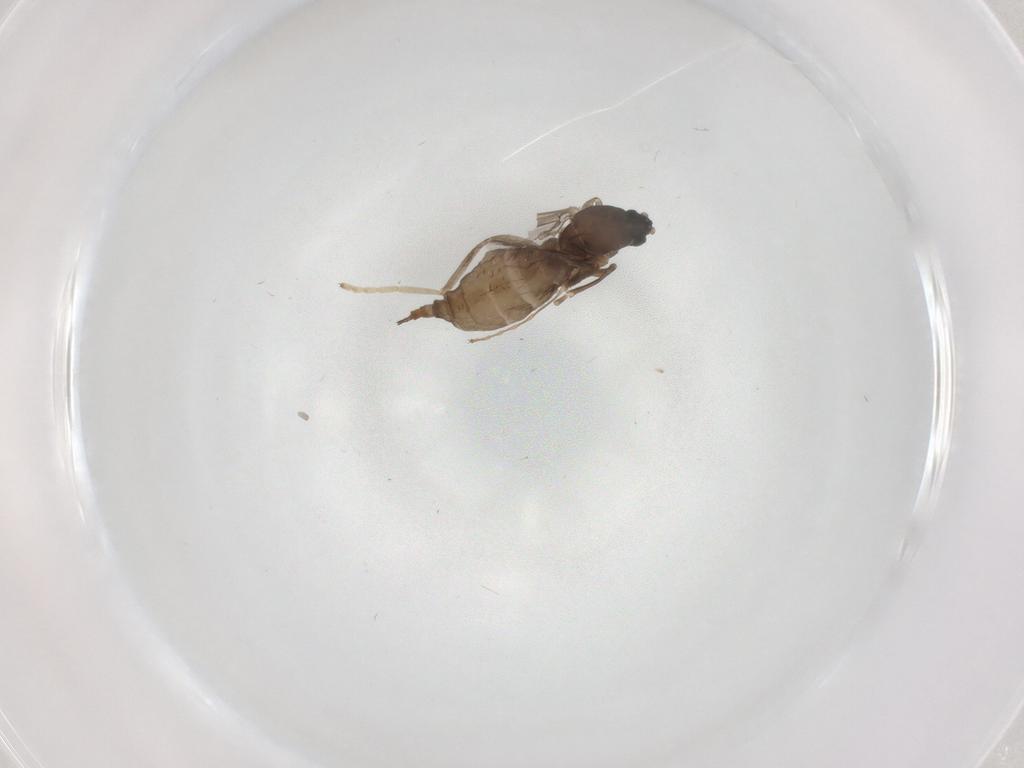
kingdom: Animalia
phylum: Arthropoda
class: Insecta
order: Diptera
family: Cecidomyiidae
